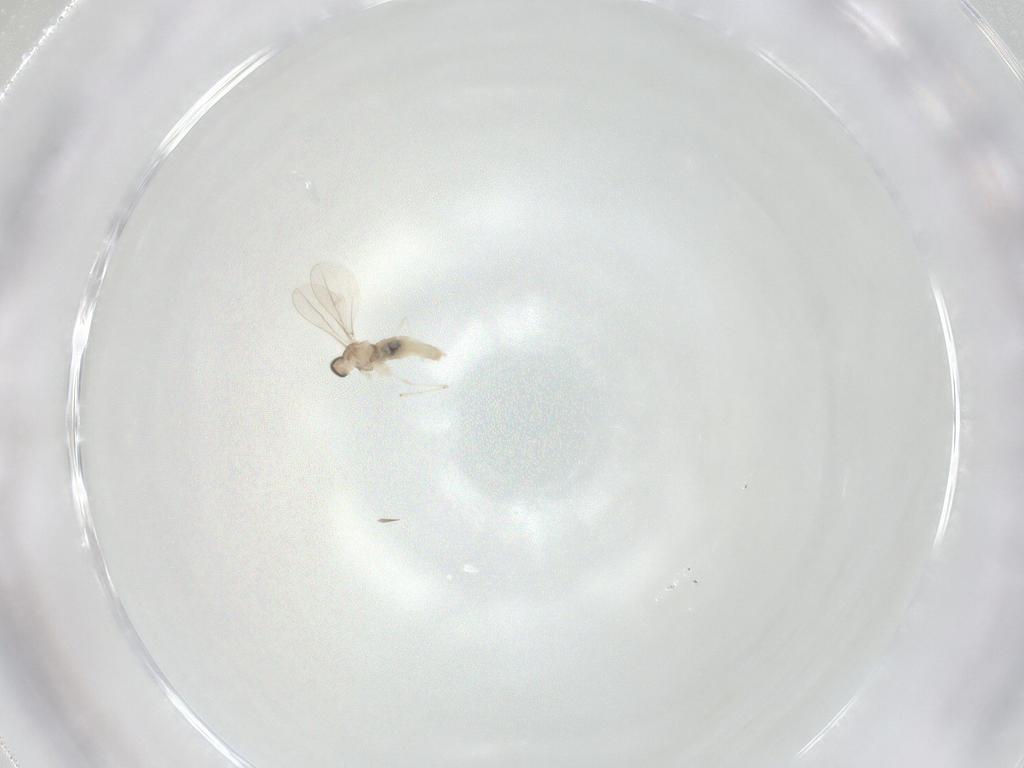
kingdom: Animalia
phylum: Arthropoda
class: Insecta
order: Diptera
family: Cecidomyiidae
